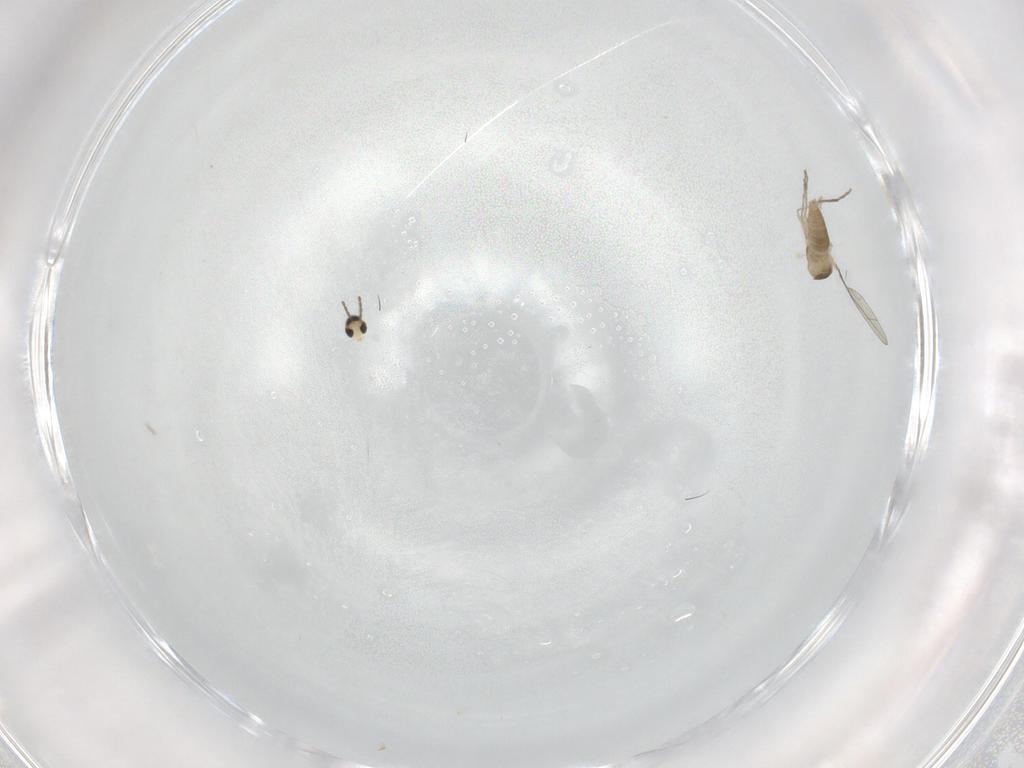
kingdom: Animalia
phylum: Arthropoda
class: Insecta
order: Diptera
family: Cecidomyiidae
